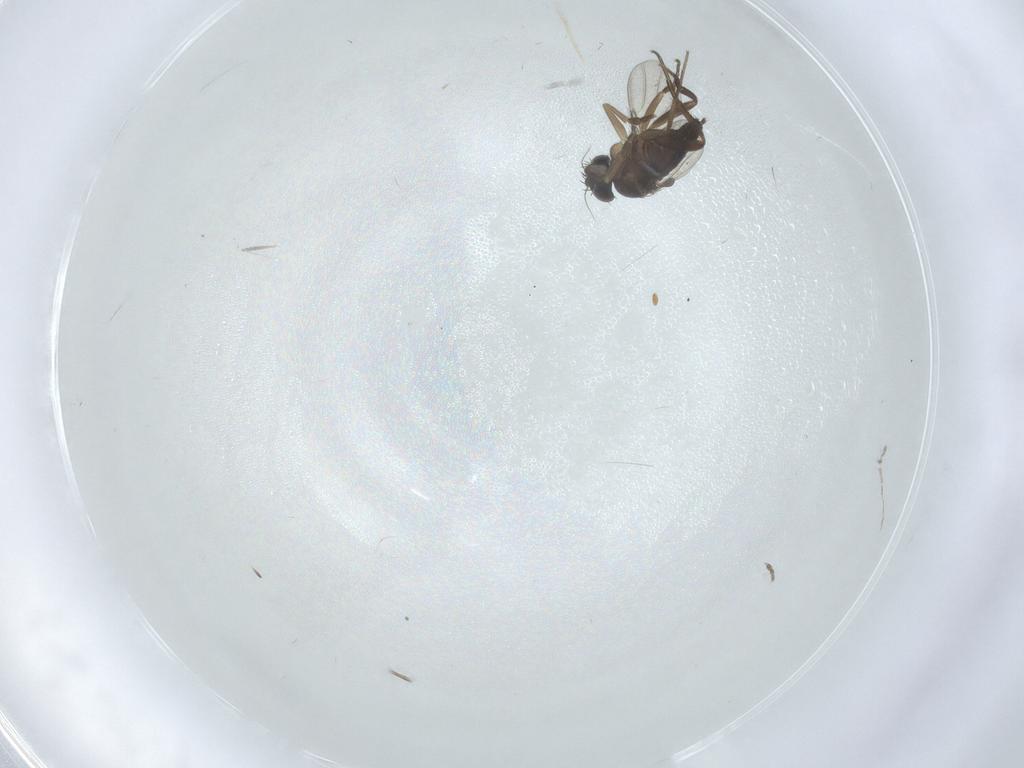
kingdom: Animalia
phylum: Arthropoda
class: Insecta
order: Diptera
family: Phoridae
